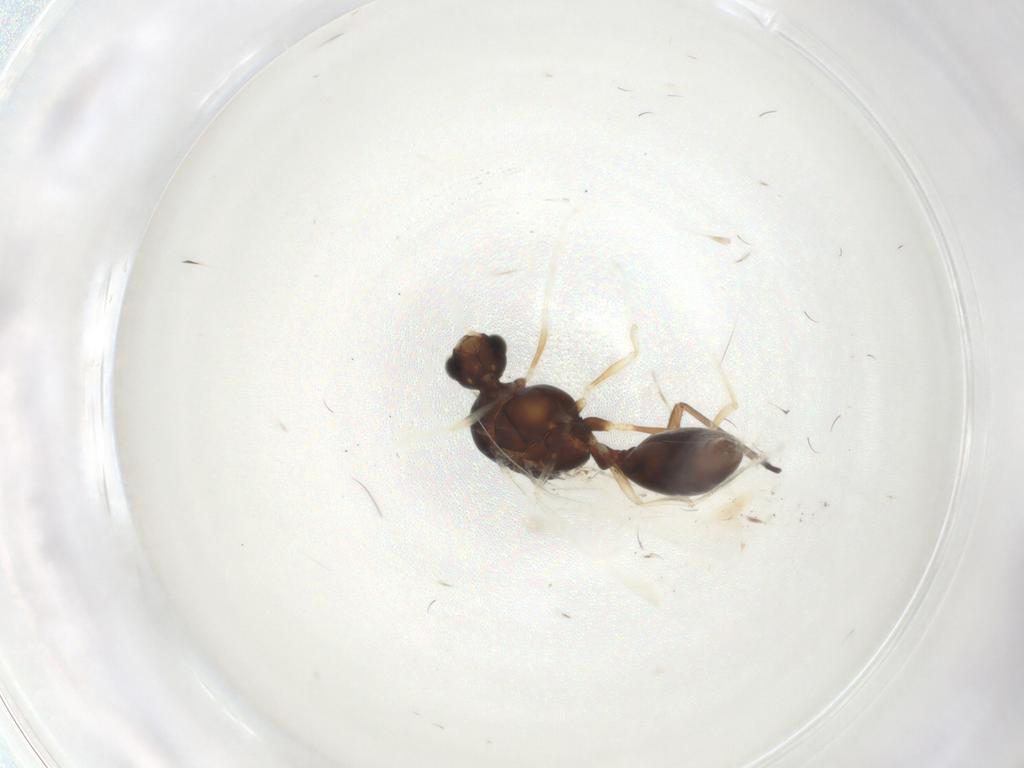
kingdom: Animalia
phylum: Arthropoda
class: Insecta
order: Hymenoptera
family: Formicidae
